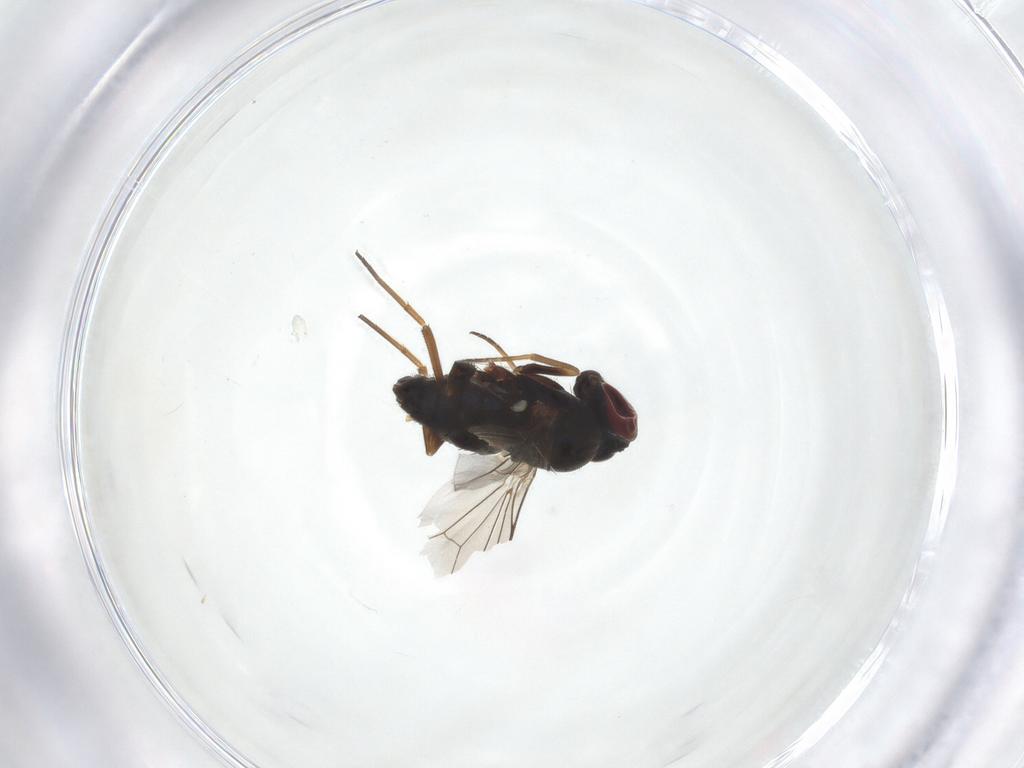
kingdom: Animalia
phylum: Arthropoda
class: Insecta
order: Diptera
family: Dolichopodidae
